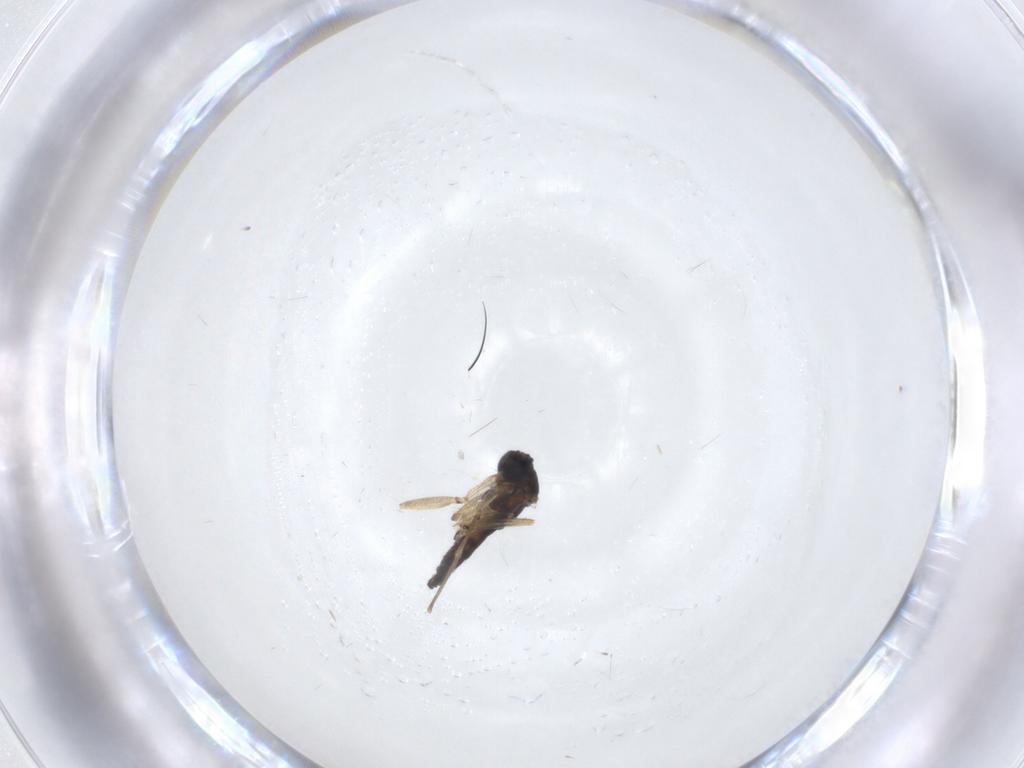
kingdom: Animalia
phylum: Arthropoda
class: Insecta
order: Diptera
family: Sciaridae
